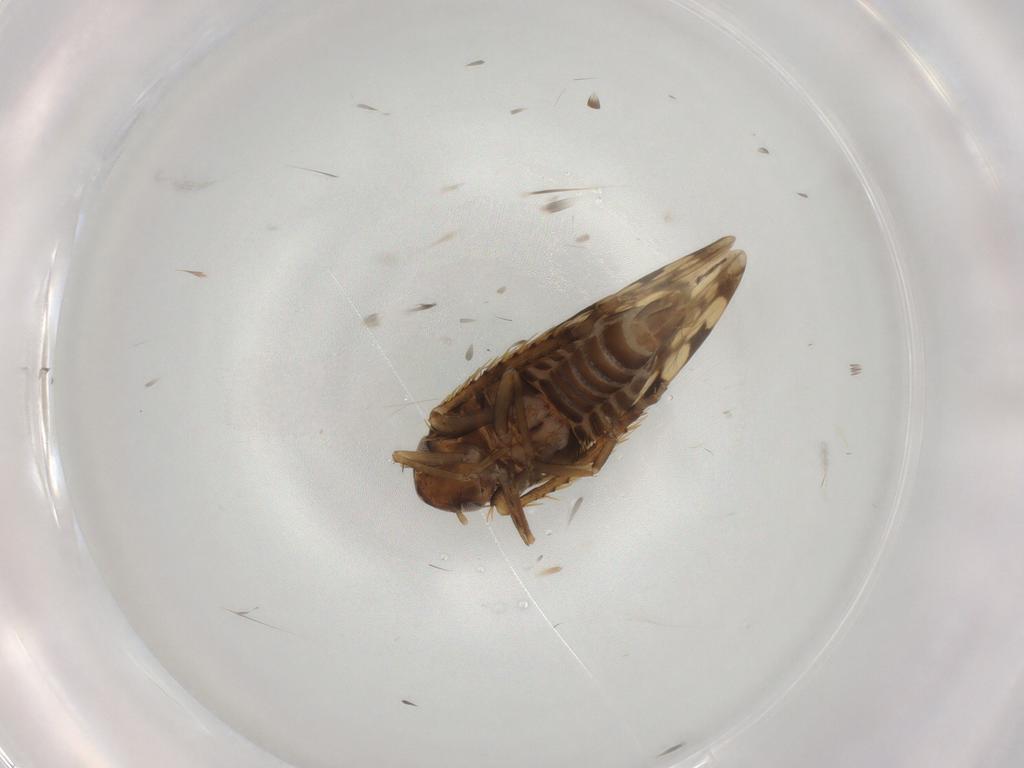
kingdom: Animalia
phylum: Arthropoda
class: Insecta
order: Hemiptera
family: Cicadellidae
